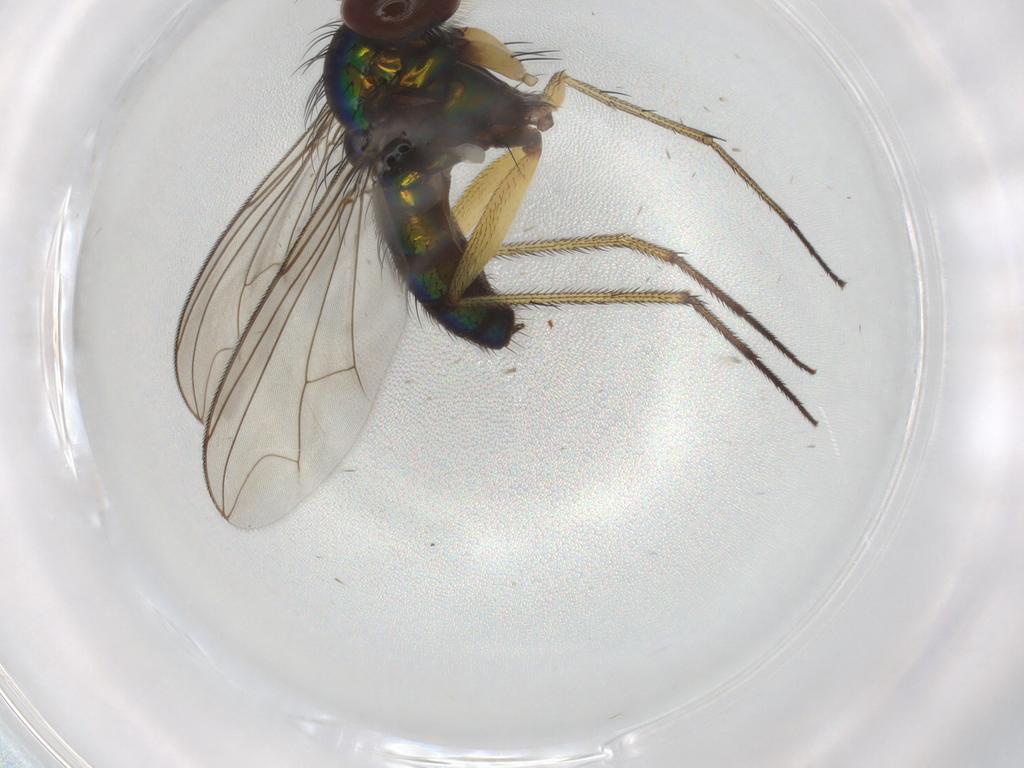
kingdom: Animalia
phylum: Arthropoda
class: Insecta
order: Diptera
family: Dolichopodidae
